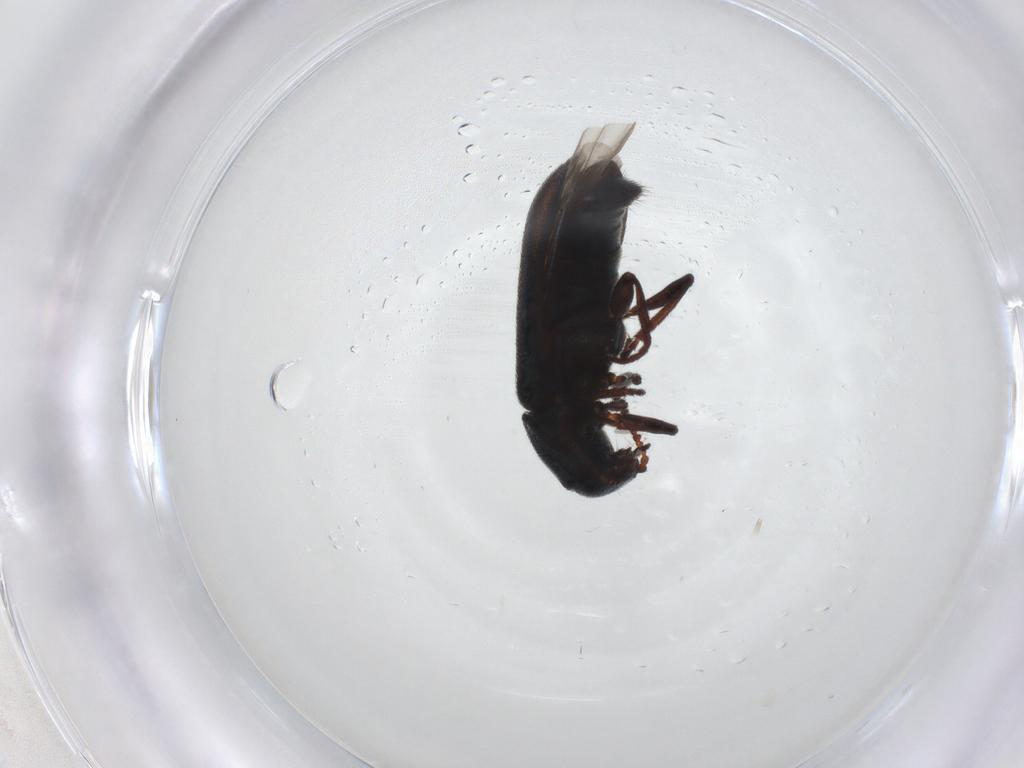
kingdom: Animalia
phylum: Arthropoda
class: Insecta
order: Coleoptera
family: Melyridae
